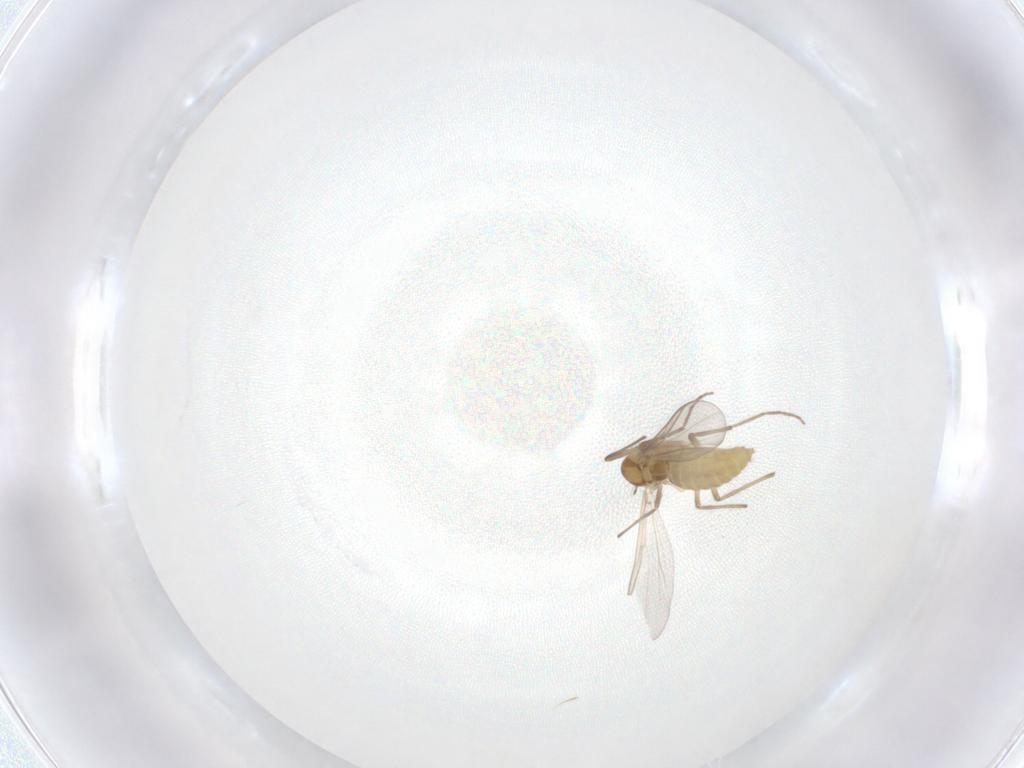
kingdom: Animalia
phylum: Arthropoda
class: Insecta
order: Diptera
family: Chironomidae
